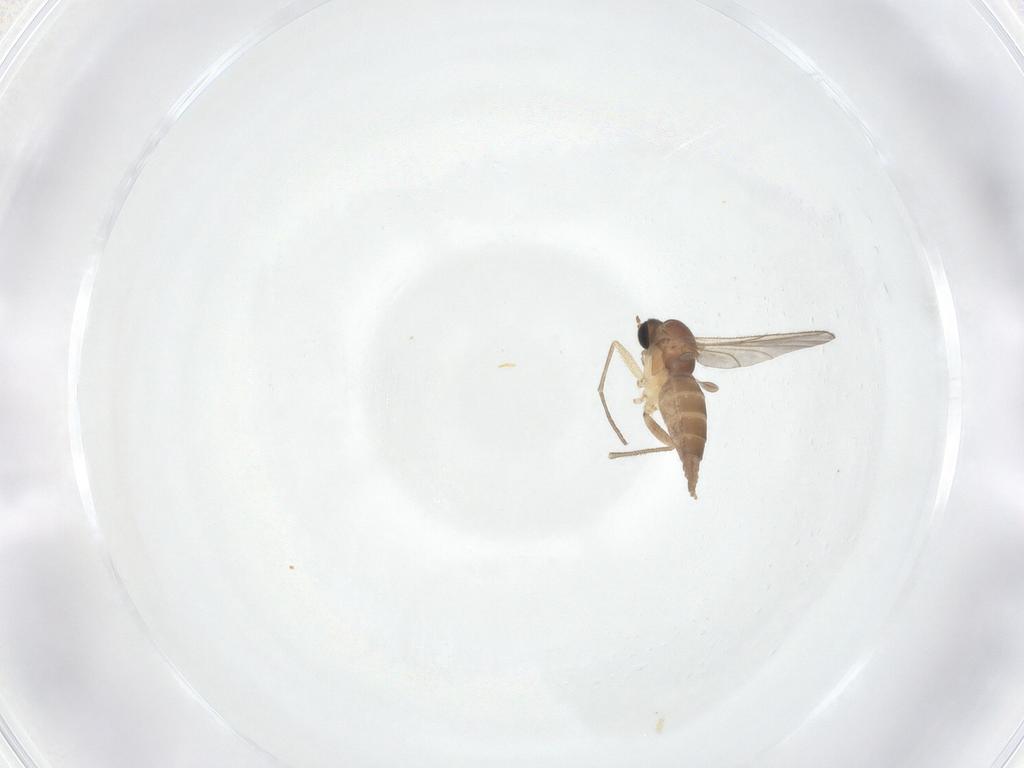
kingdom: Animalia
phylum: Arthropoda
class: Insecta
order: Diptera
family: Sciaridae
